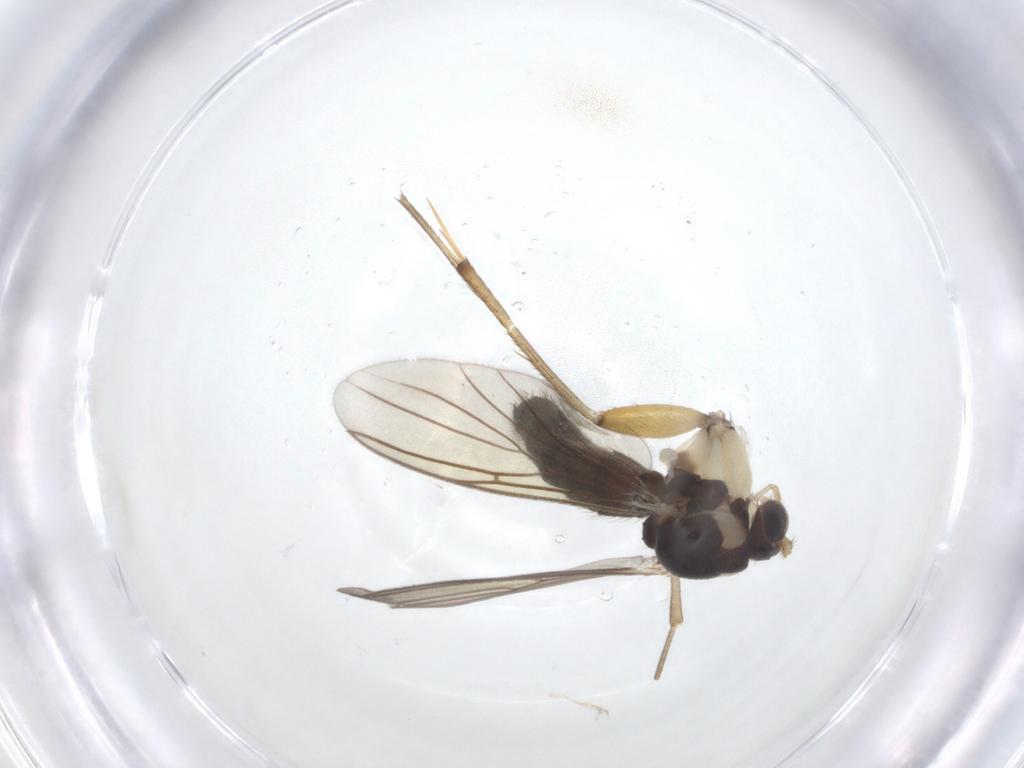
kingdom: Animalia
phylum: Arthropoda
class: Insecta
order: Diptera
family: Mycetophilidae
